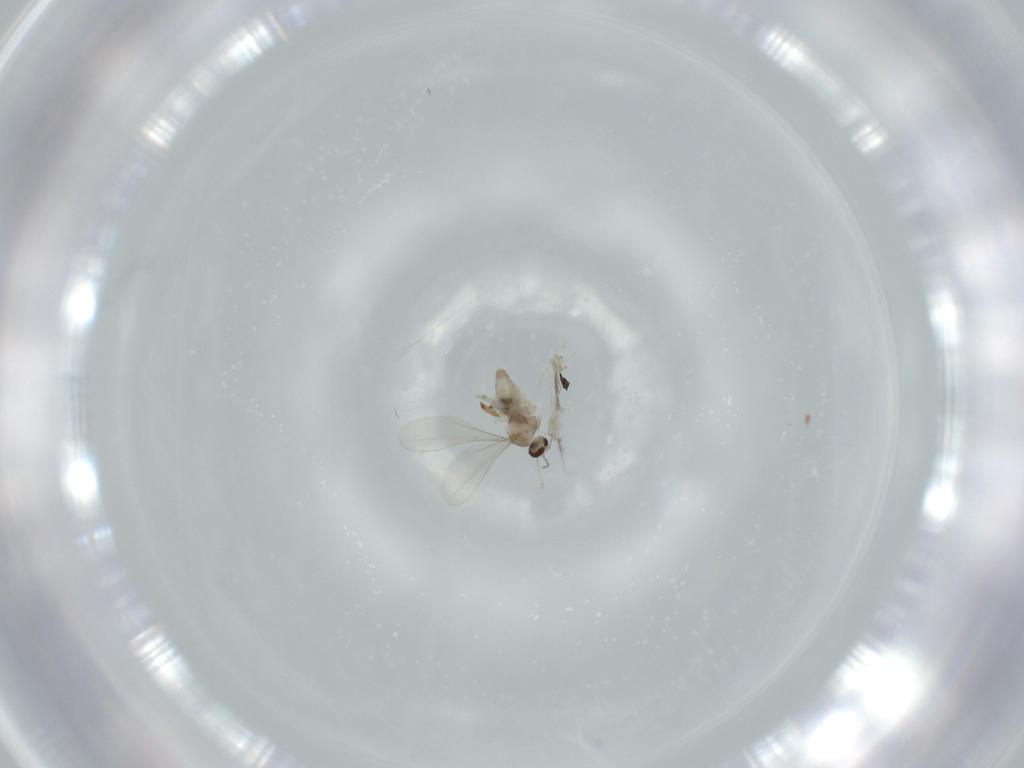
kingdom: Animalia
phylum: Arthropoda
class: Insecta
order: Diptera
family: Cecidomyiidae
